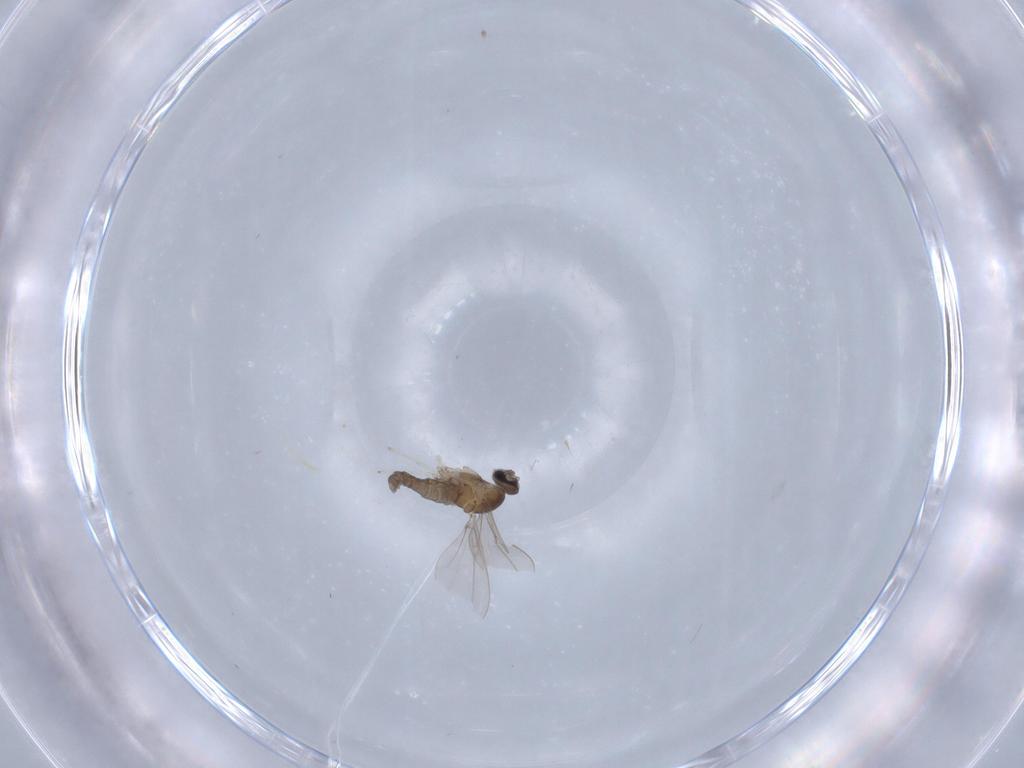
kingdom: Animalia
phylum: Arthropoda
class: Insecta
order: Diptera
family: Cecidomyiidae
